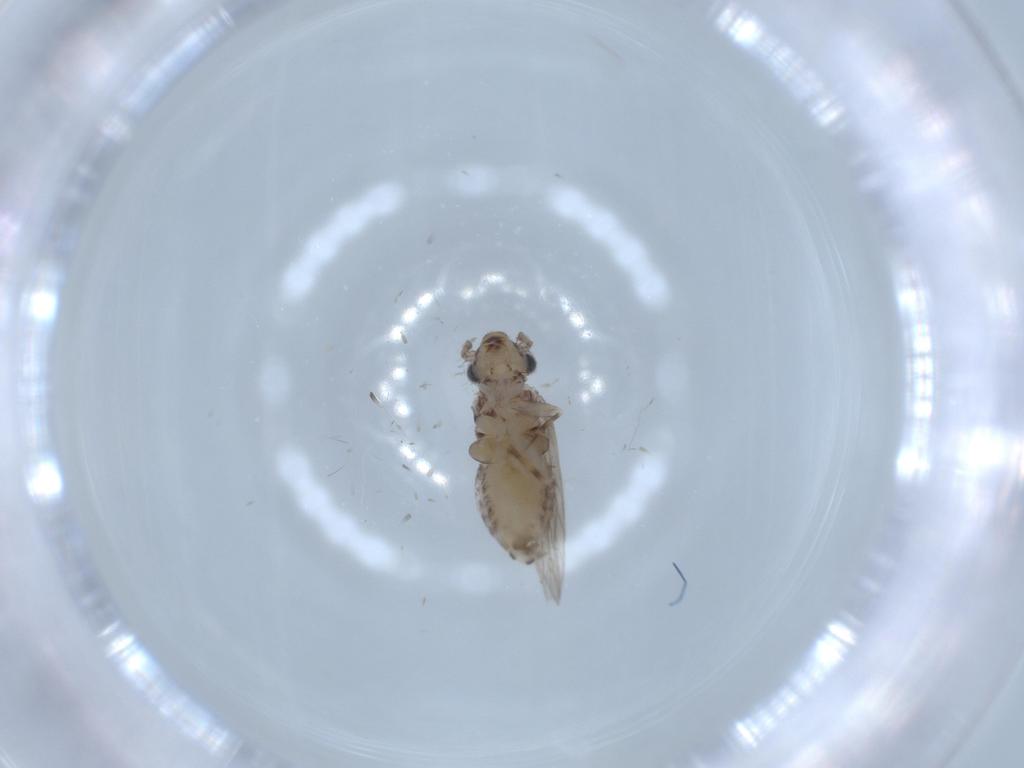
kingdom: Animalia
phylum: Arthropoda
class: Insecta
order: Psocodea
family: Lepidopsocidae
